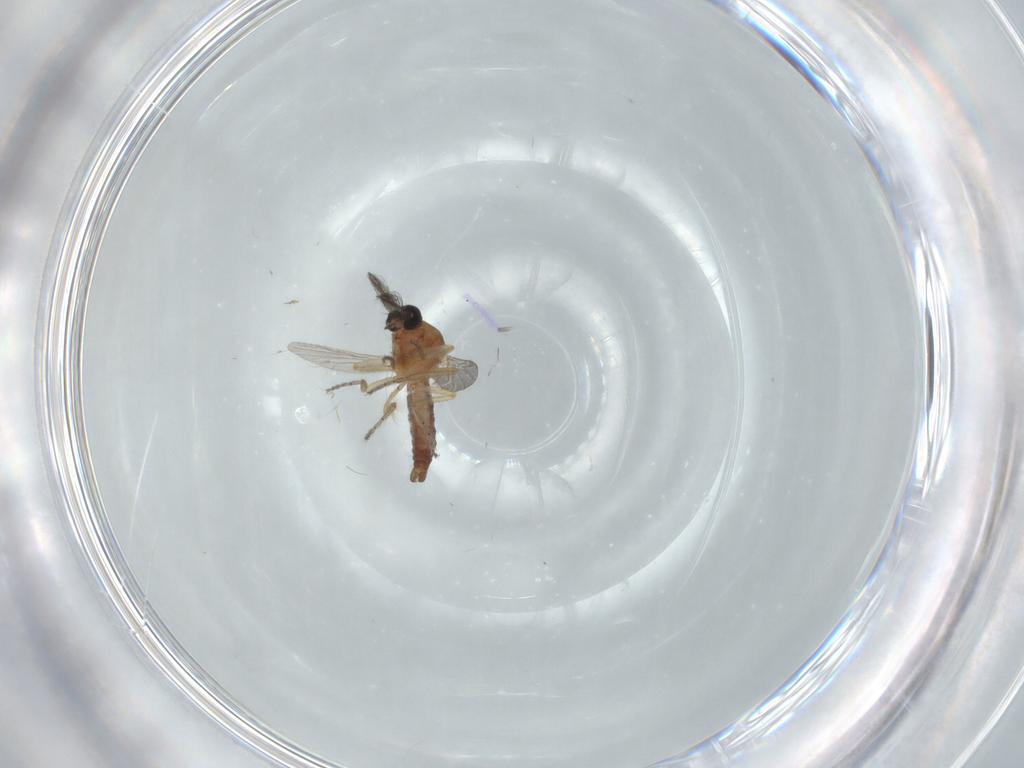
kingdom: Animalia
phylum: Arthropoda
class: Insecta
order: Diptera
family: Ceratopogonidae
